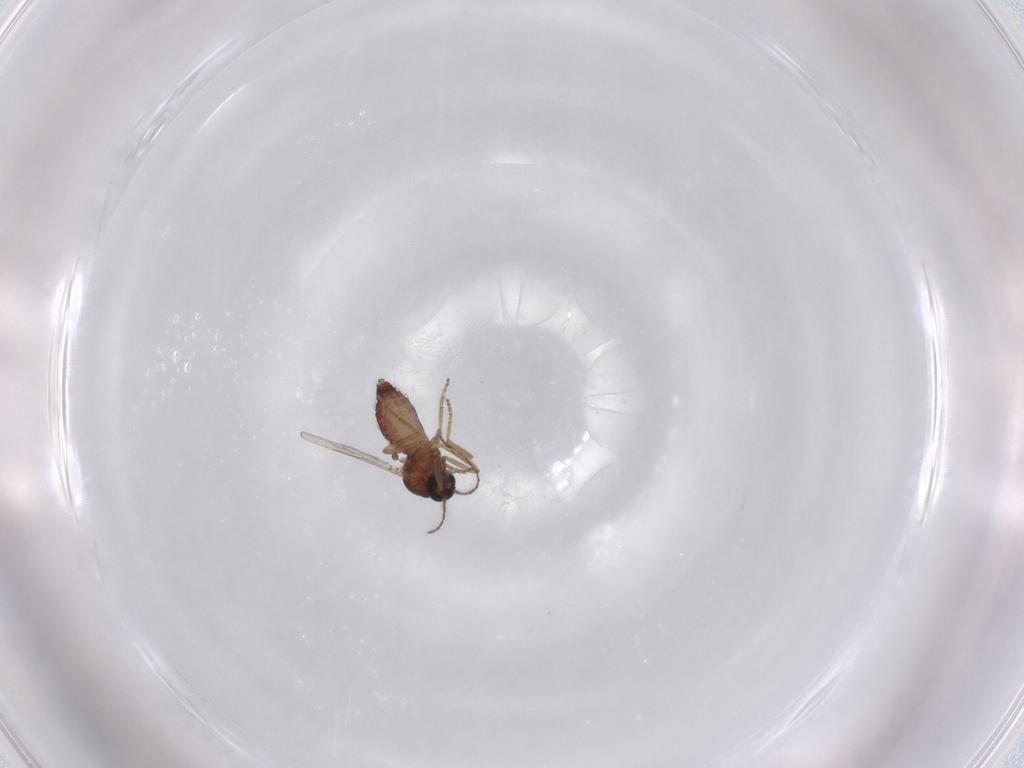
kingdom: Animalia
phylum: Arthropoda
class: Insecta
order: Diptera
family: Ceratopogonidae
